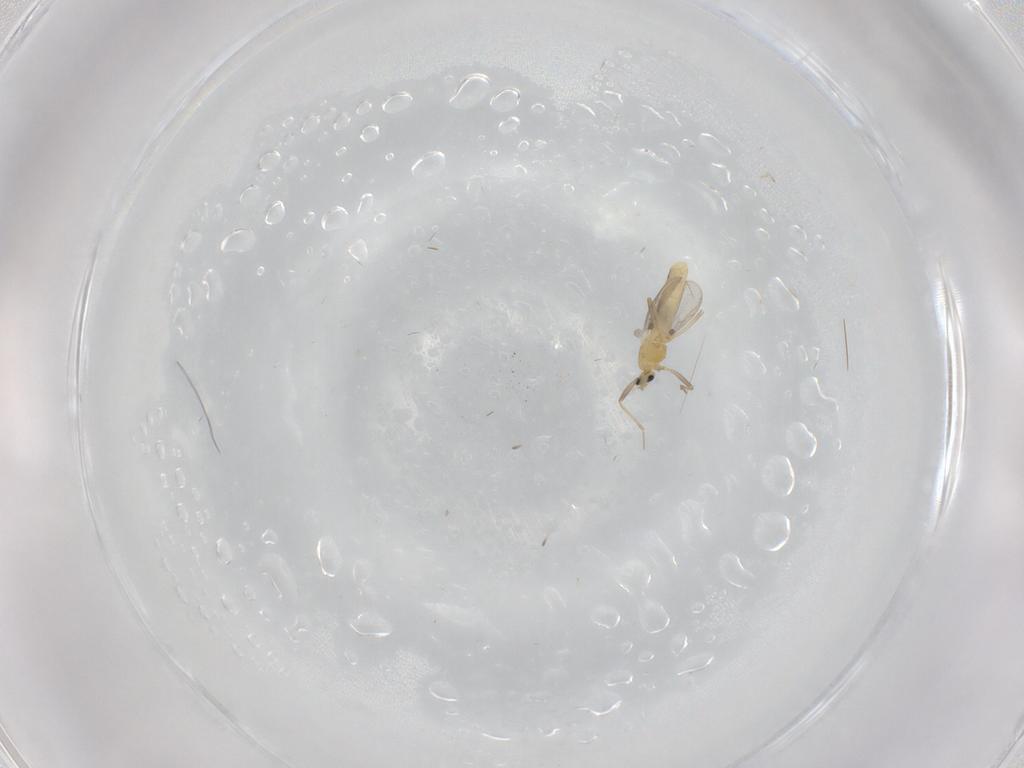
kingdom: Animalia
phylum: Arthropoda
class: Insecta
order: Diptera
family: Chironomidae
